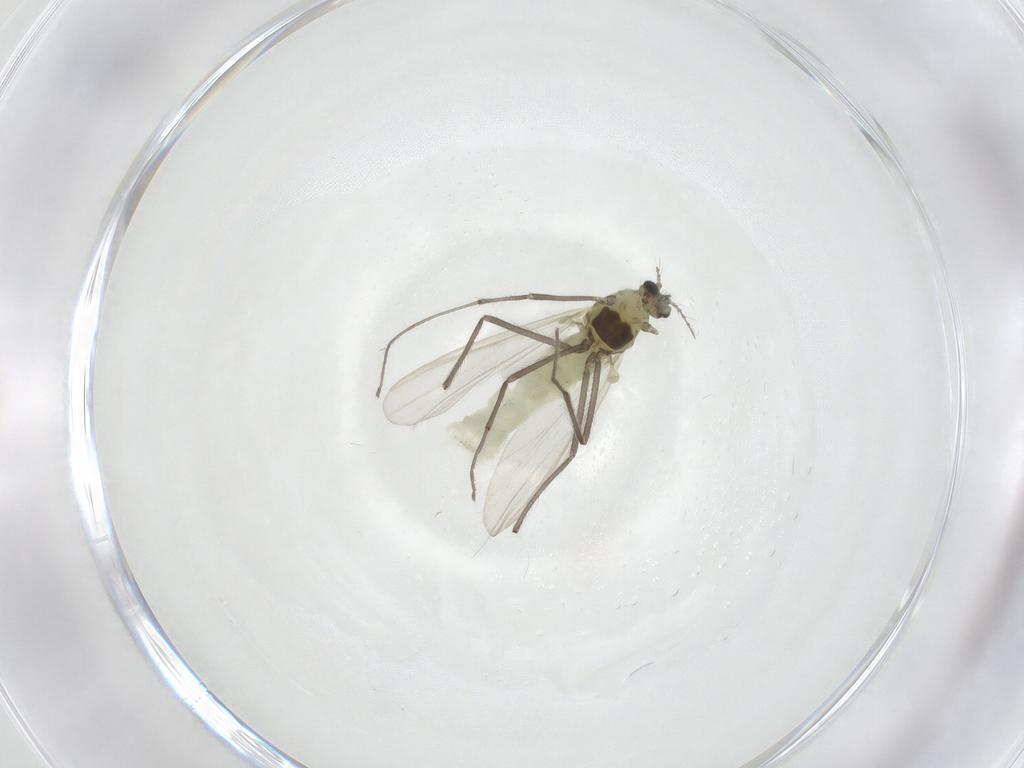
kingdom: Animalia
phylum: Arthropoda
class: Insecta
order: Diptera
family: Chironomidae
